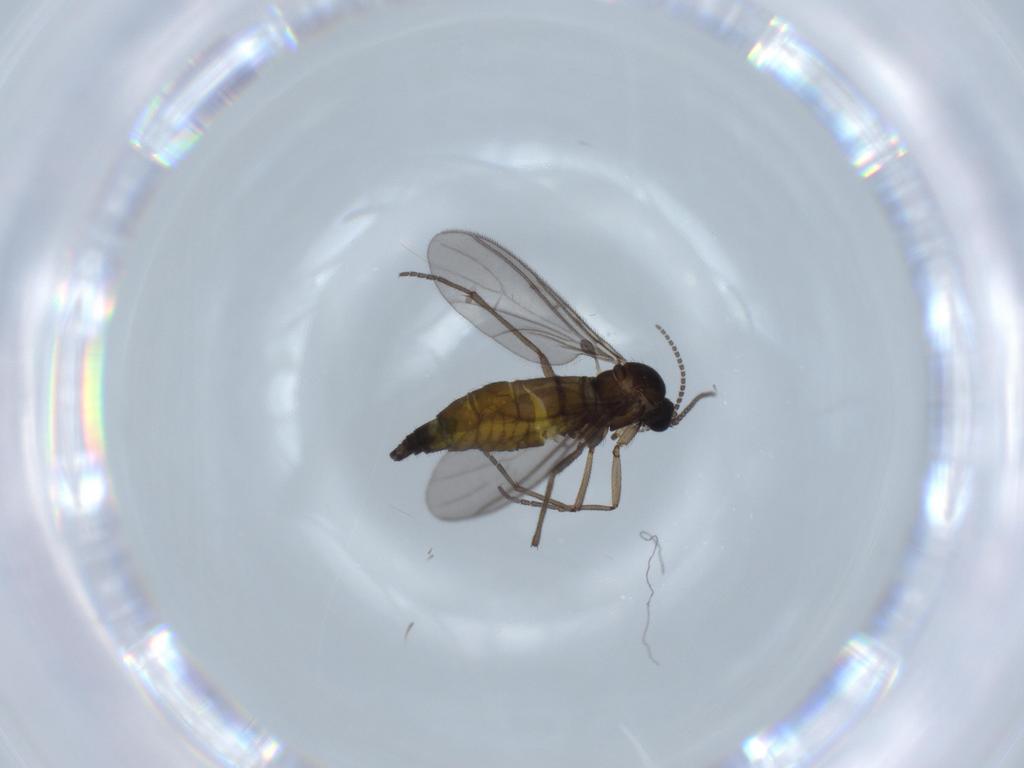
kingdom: Animalia
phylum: Arthropoda
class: Insecta
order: Diptera
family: Sciaridae
